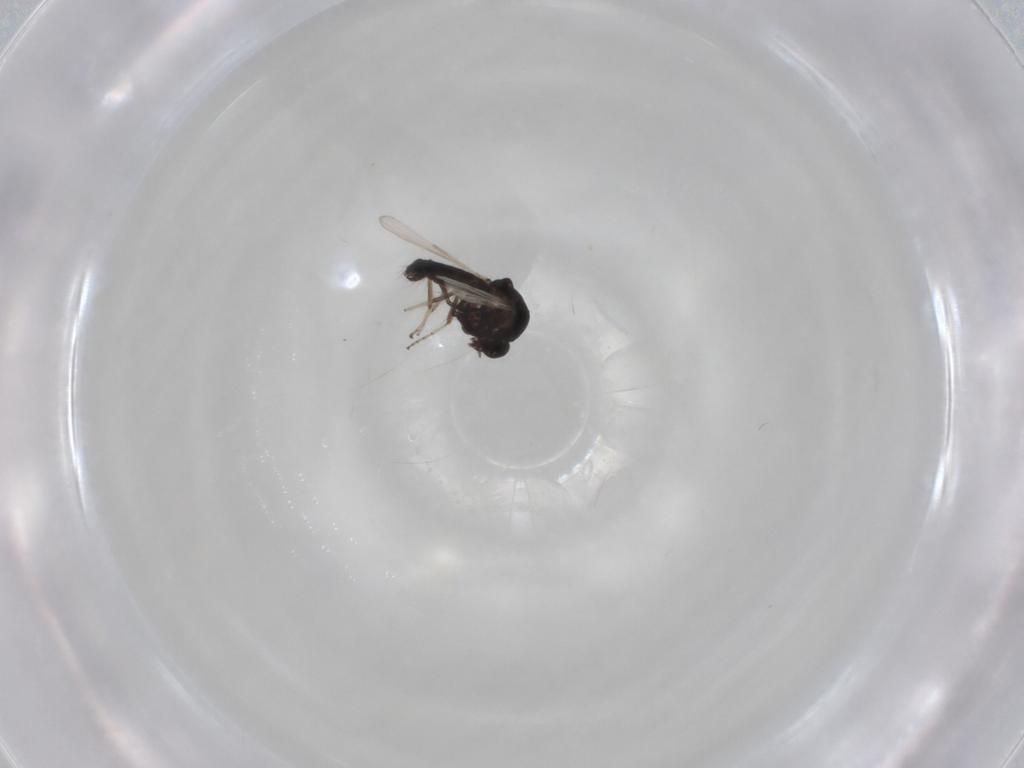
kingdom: Animalia
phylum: Arthropoda
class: Insecta
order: Diptera
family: Ceratopogonidae
